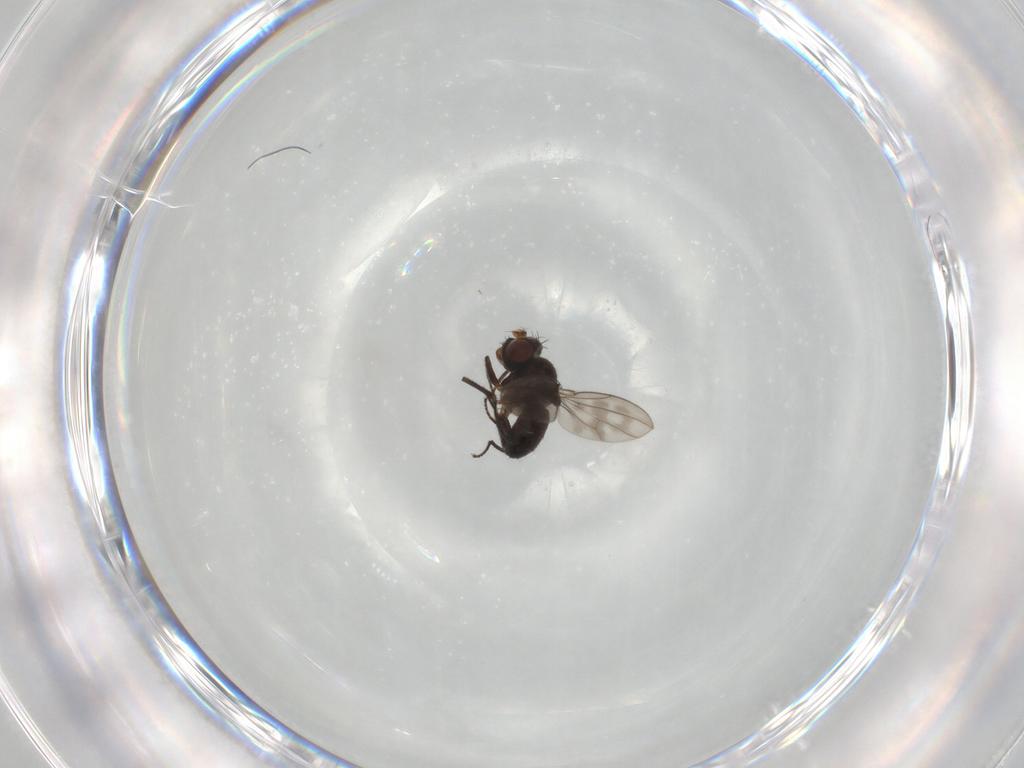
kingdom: Animalia
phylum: Arthropoda
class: Insecta
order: Diptera
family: Ephydridae
